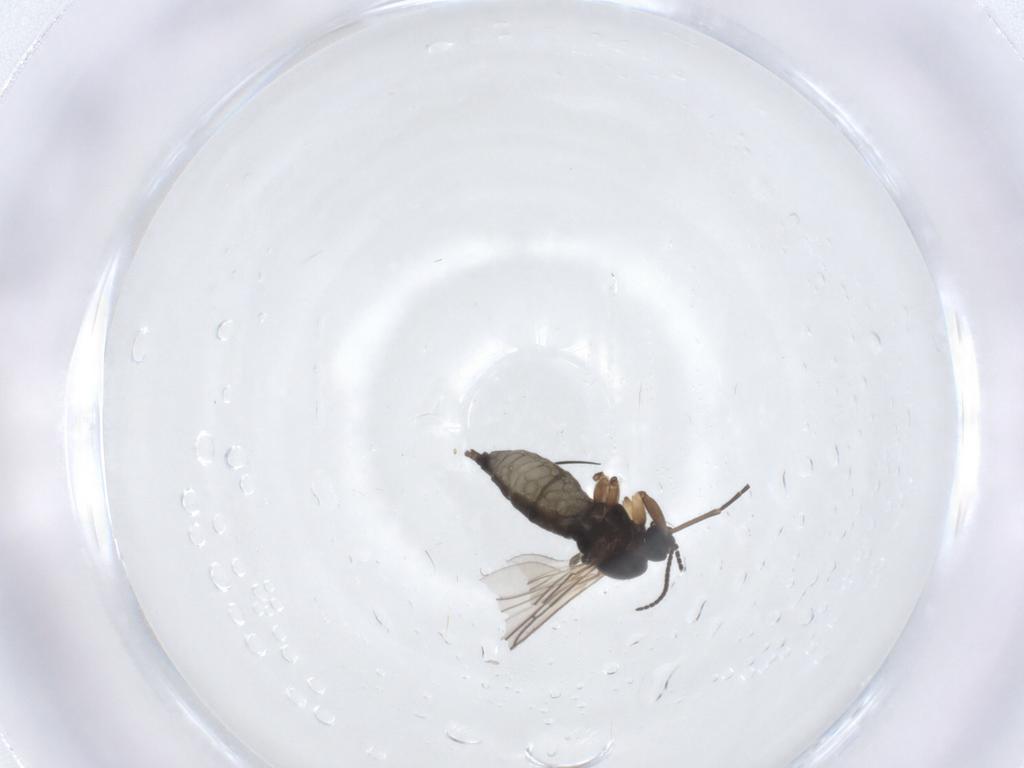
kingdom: Animalia
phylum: Arthropoda
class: Insecta
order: Diptera
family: Sciaridae
